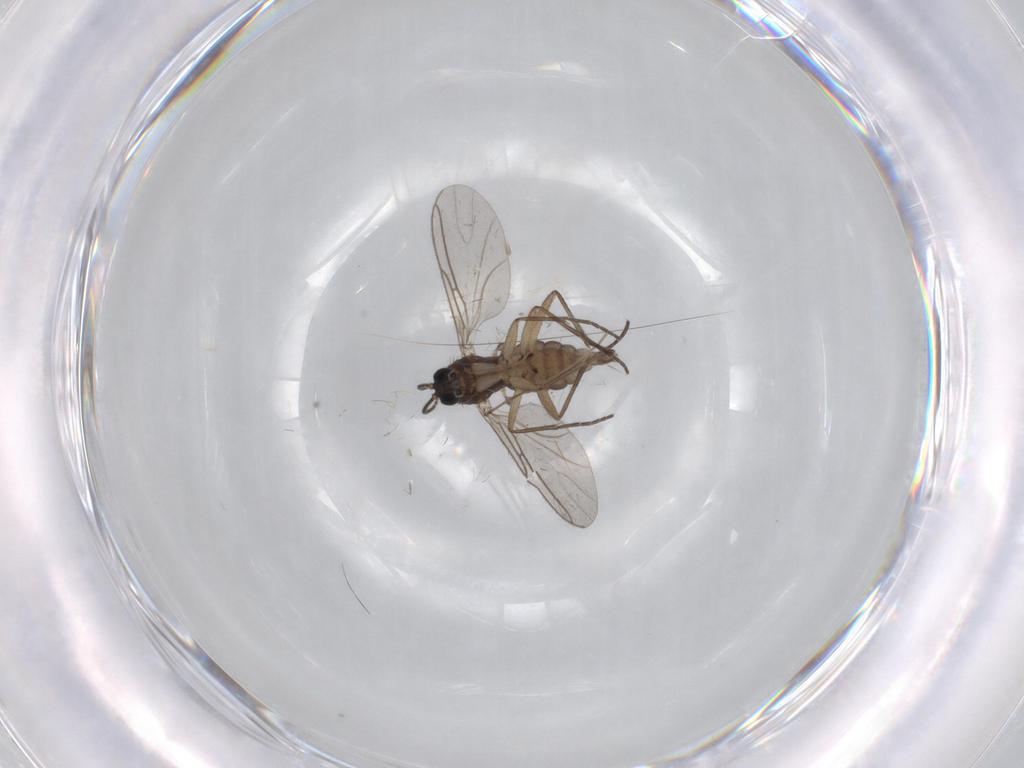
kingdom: Animalia
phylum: Arthropoda
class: Insecta
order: Diptera
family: Sciaridae
